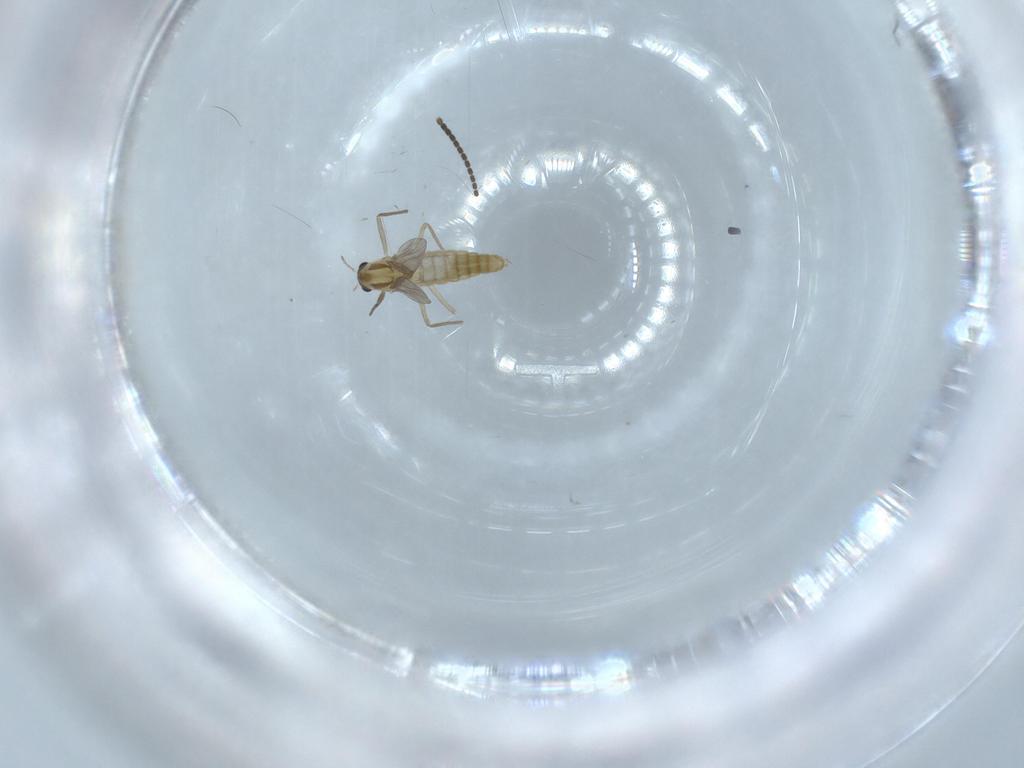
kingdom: Animalia
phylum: Arthropoda
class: Insecta
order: Diptera
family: Chironomidae
